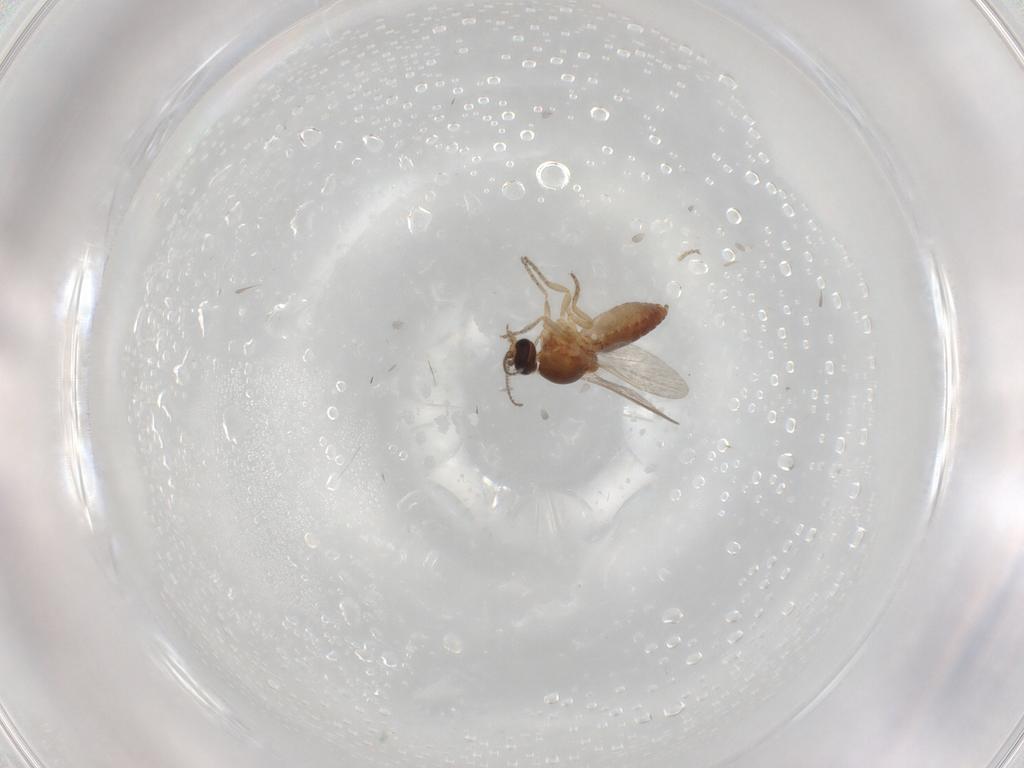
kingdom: Animalia
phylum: Arthropoda
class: Insecta
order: Diptera
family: Ceratopogonidae
